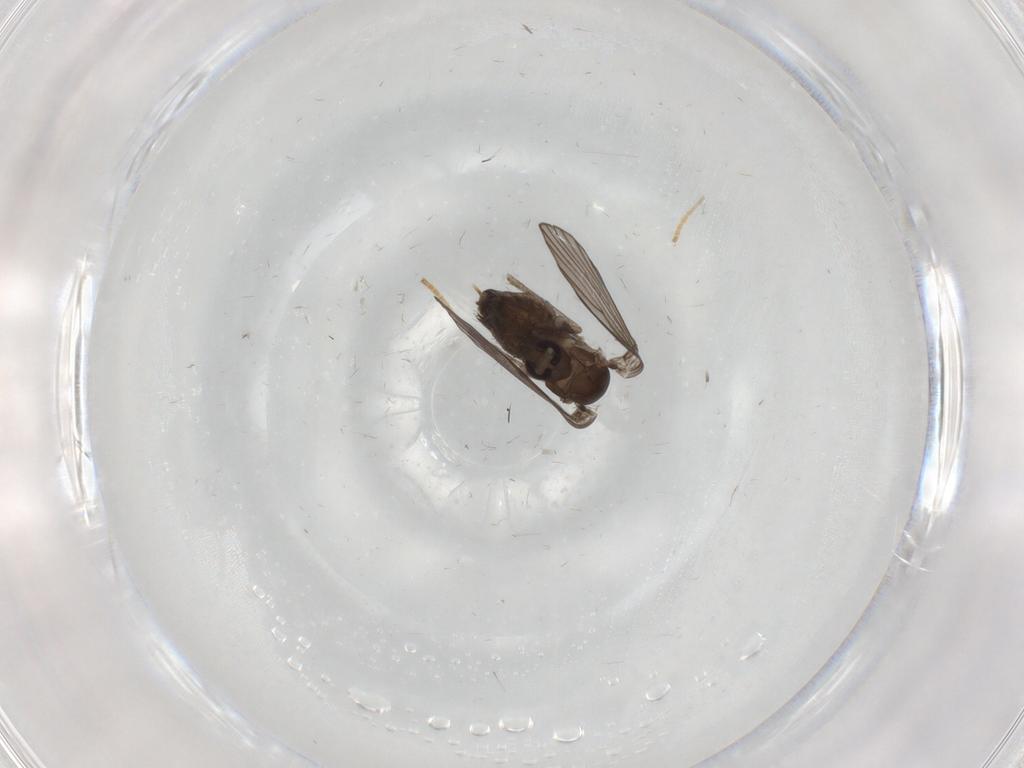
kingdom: Animalia
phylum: Arthropoda
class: Insecta
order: Diptera
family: Psychodidae
